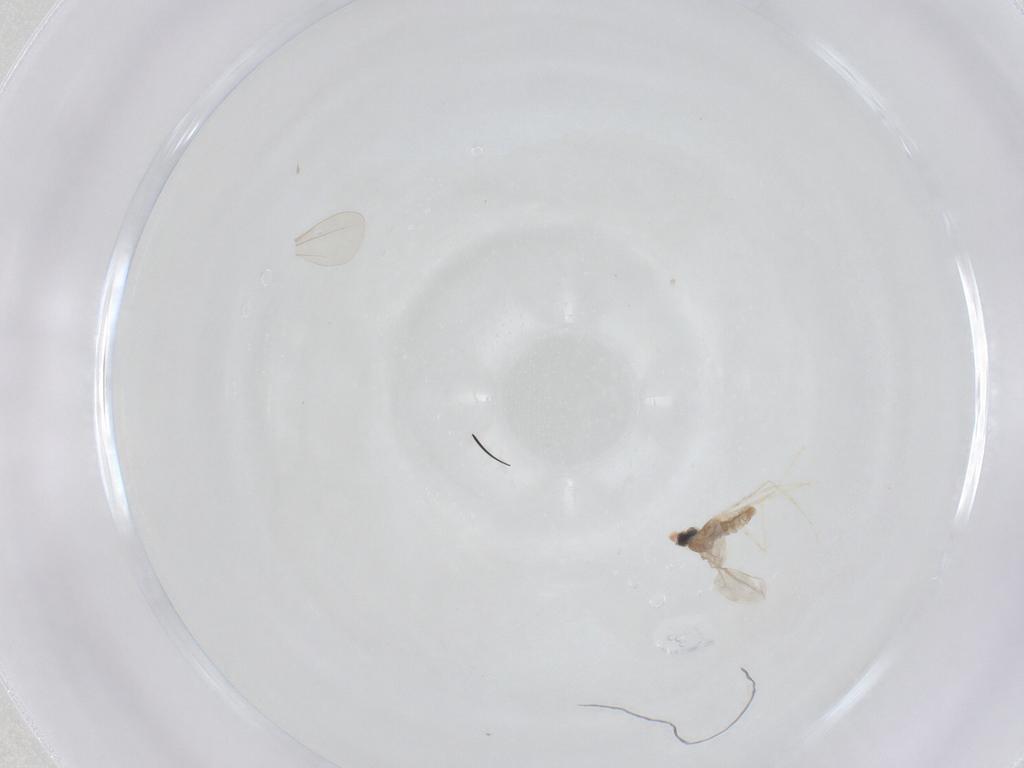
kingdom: Animalia
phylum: Arthropoda
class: Insecta
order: Diptera
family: Cecidomyiidae
